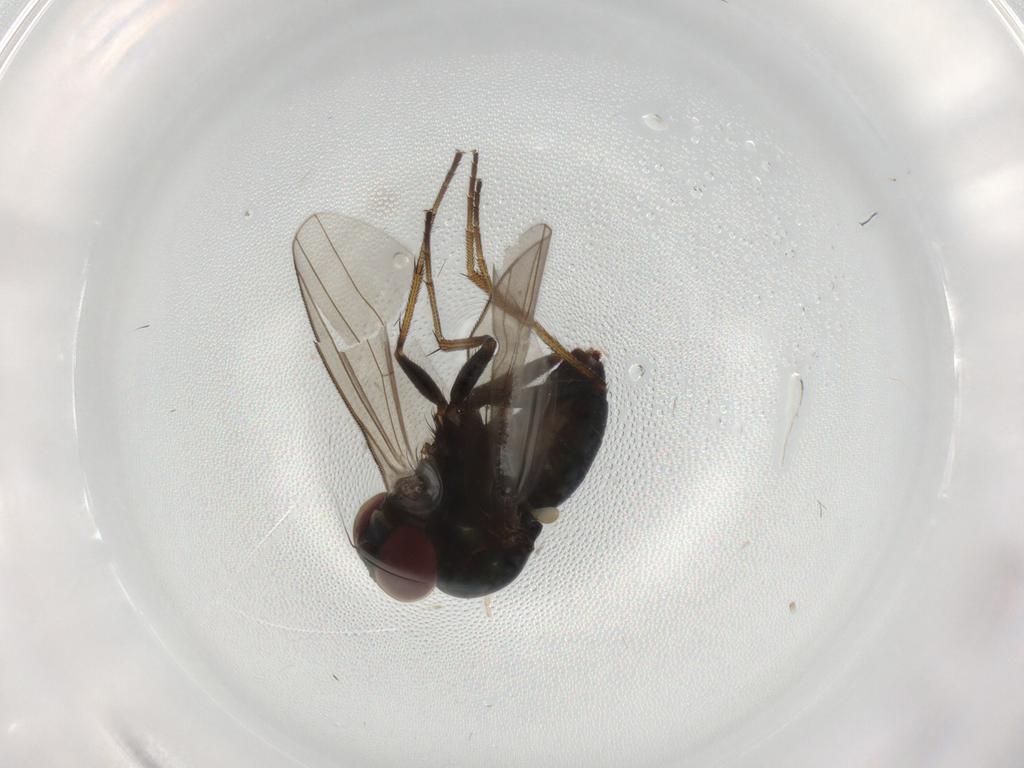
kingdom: Animalia
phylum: Arthropoda
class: Insecta
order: Diptera
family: Dolichopodidae
